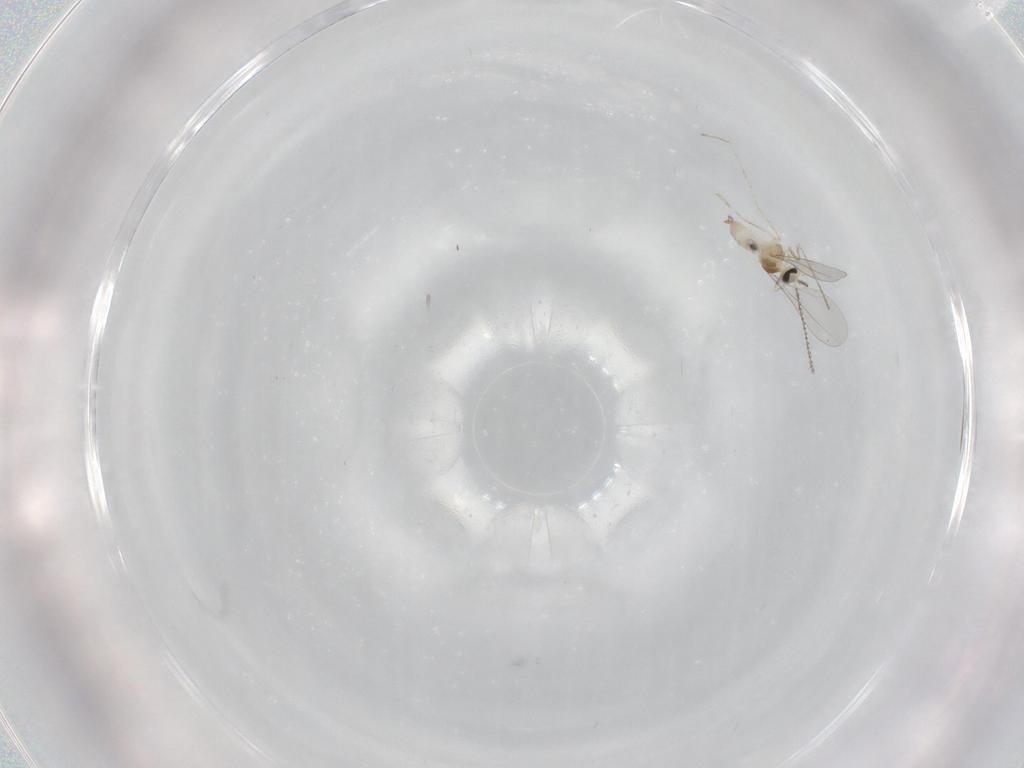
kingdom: Animalia
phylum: Arthropoda
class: Insecta
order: Diptera
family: Cecidomyiidae
